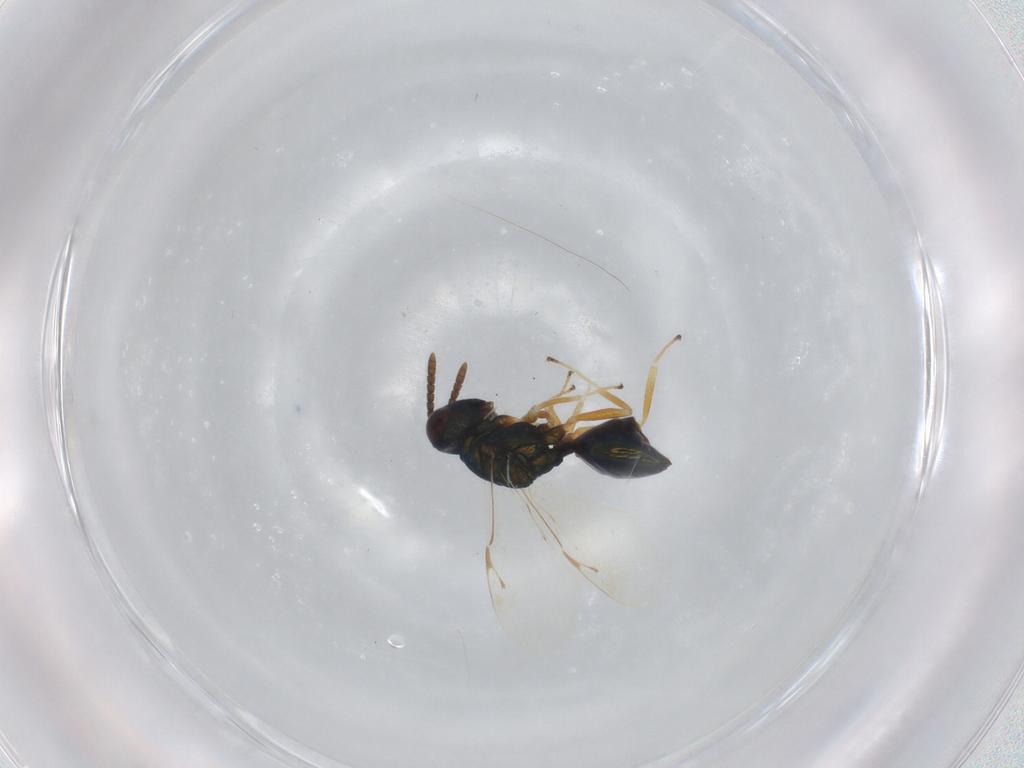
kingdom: Animalia
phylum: Arthropoda
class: Insecta
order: Hymenoptera
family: Pteromalidae
